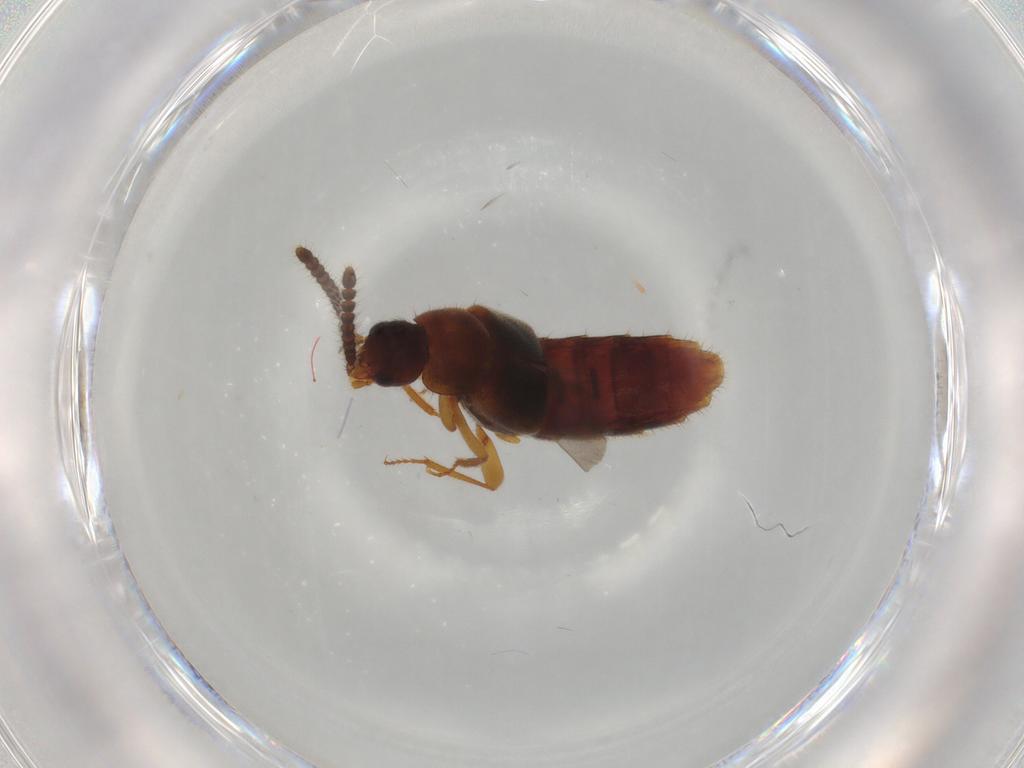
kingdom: Animalia
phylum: Arthropoda
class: Insecta
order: Coleoptera
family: Staphylinidae
